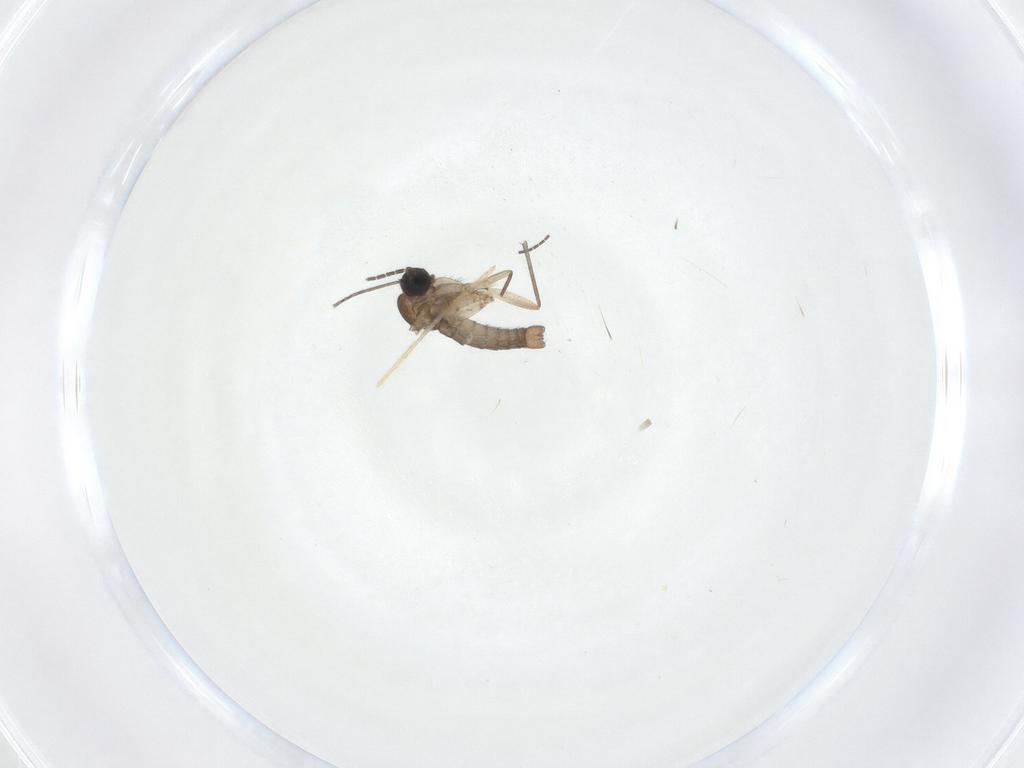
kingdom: Animalia
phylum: Arthropoda
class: Insecta
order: Diptera
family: Sciaridae
